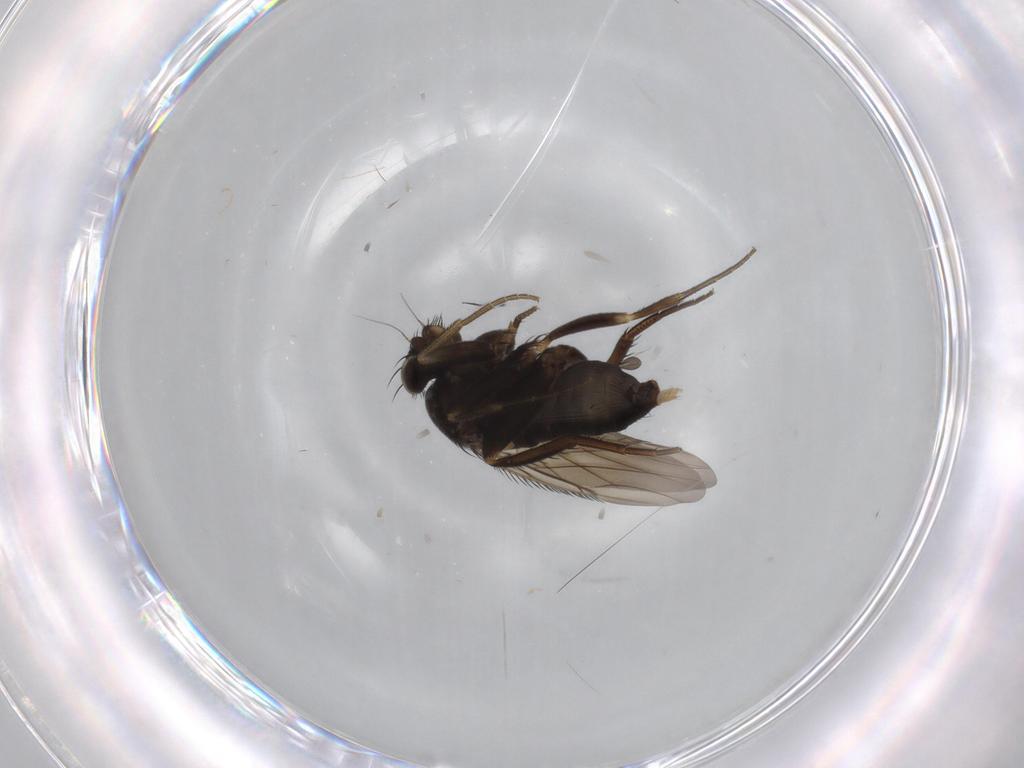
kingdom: Animalia
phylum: Arthropoda
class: Insecta
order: Diptera
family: Phoridae
